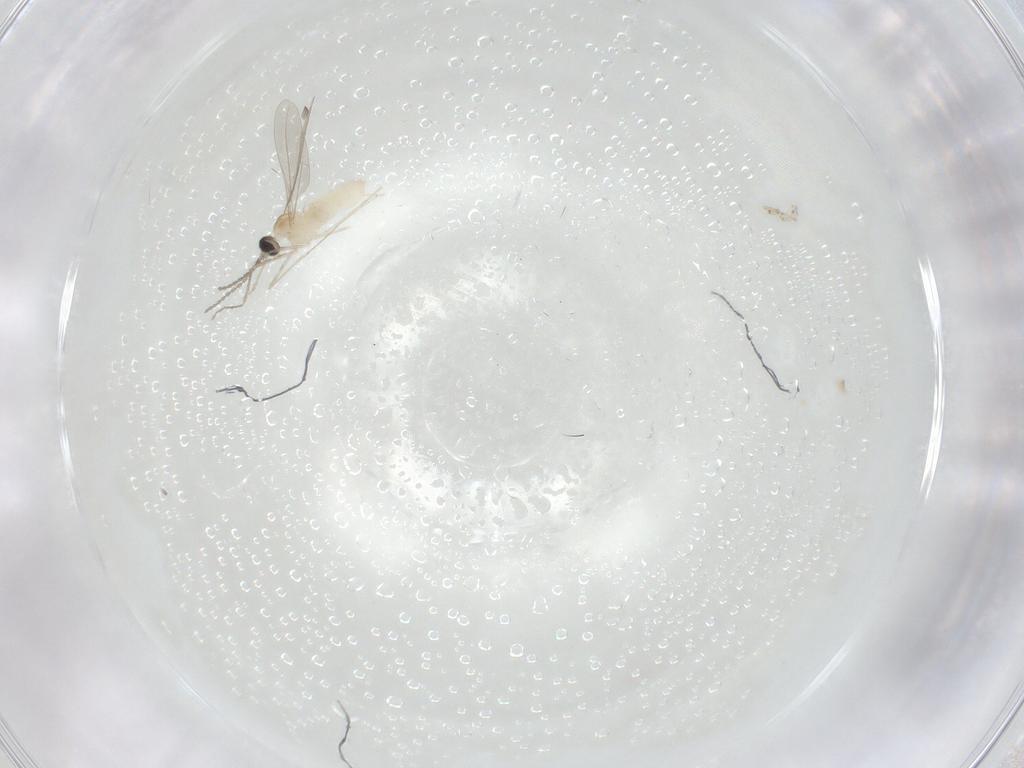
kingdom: Animalia
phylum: Arthropoda
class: Insecta
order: Diptera
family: Cecidomyiidae
